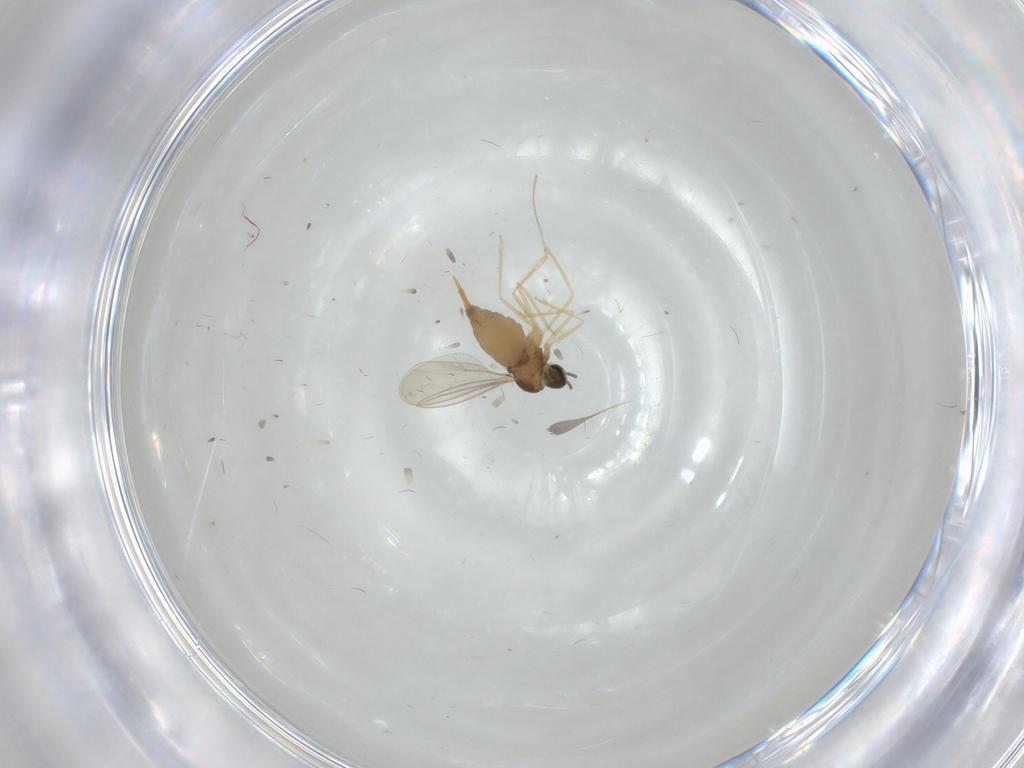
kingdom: Animalia
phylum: Arthropoda
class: Insecta
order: Diptera
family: Cecidomyiidae
